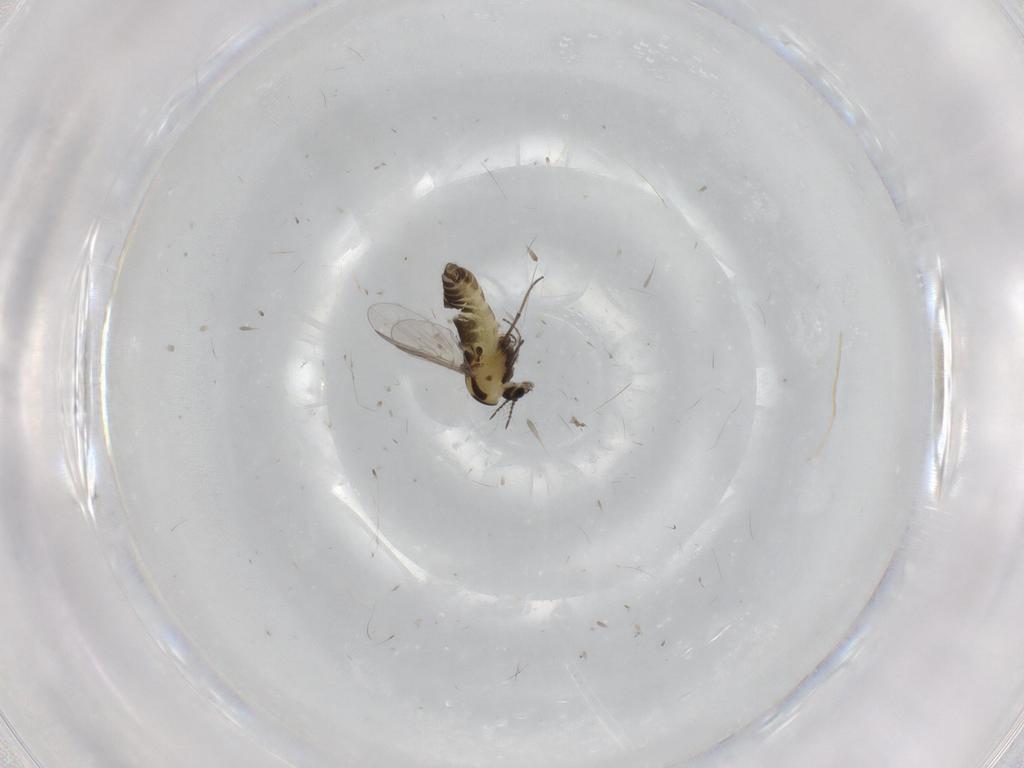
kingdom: Animalia
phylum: Arthropoda
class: Insecta
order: Diptera
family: Chironomidae
